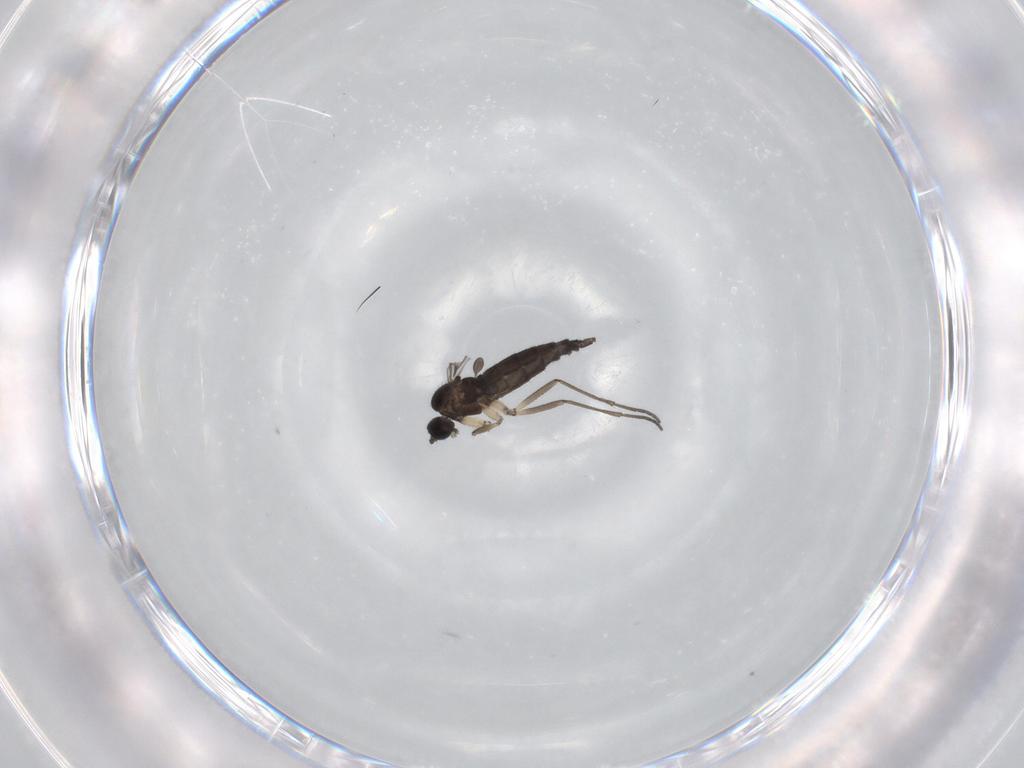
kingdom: Animalia
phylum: Arthropoda
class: Insecta
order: Diptera
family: Sciaridae
